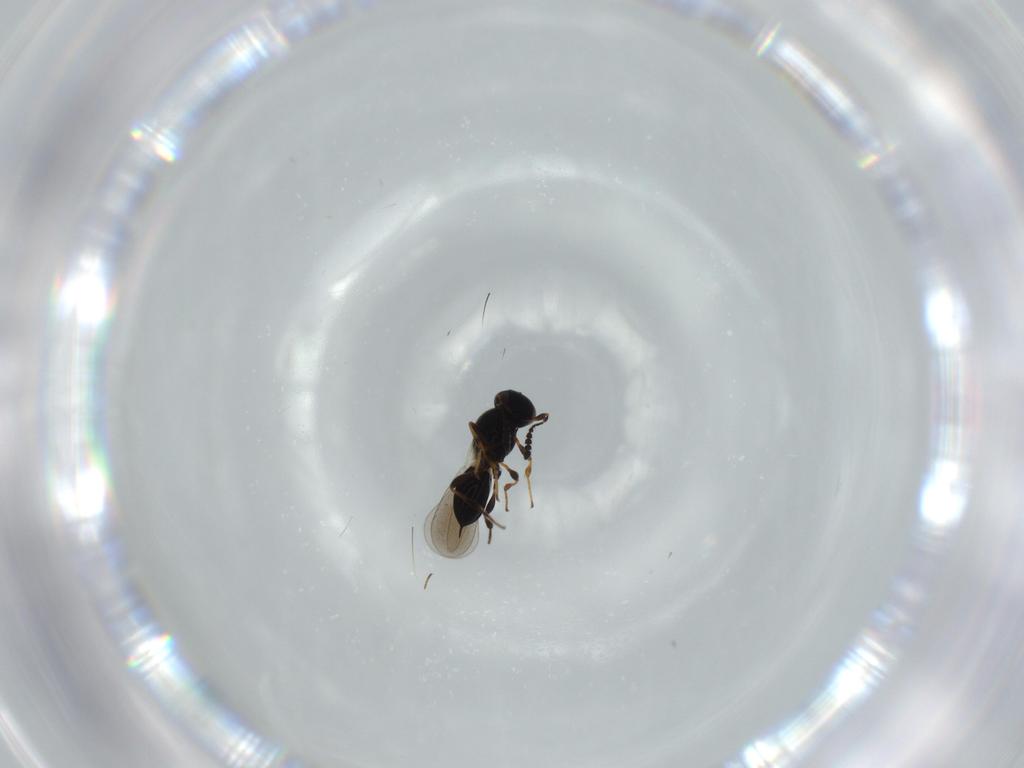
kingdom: Animalia
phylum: Arthropoda
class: Insecta
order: Hymenoptera
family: Platygastridae
